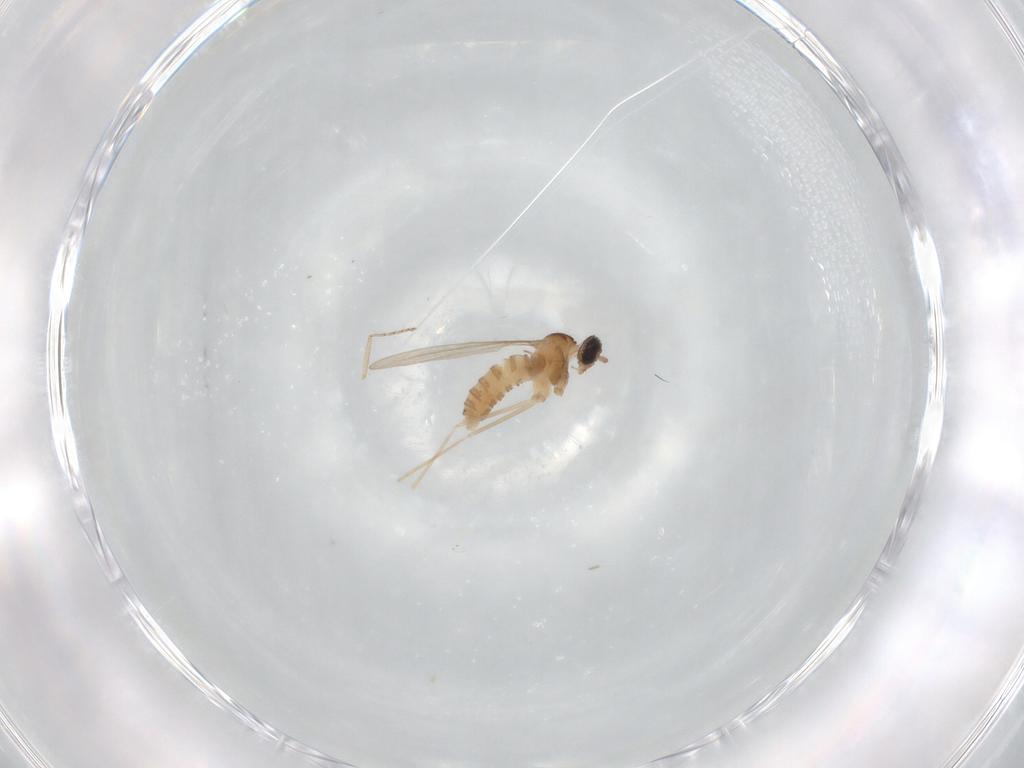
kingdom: Animalia
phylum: Arthropoda
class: Insecta
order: Diptera
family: Cecidomyiidae
